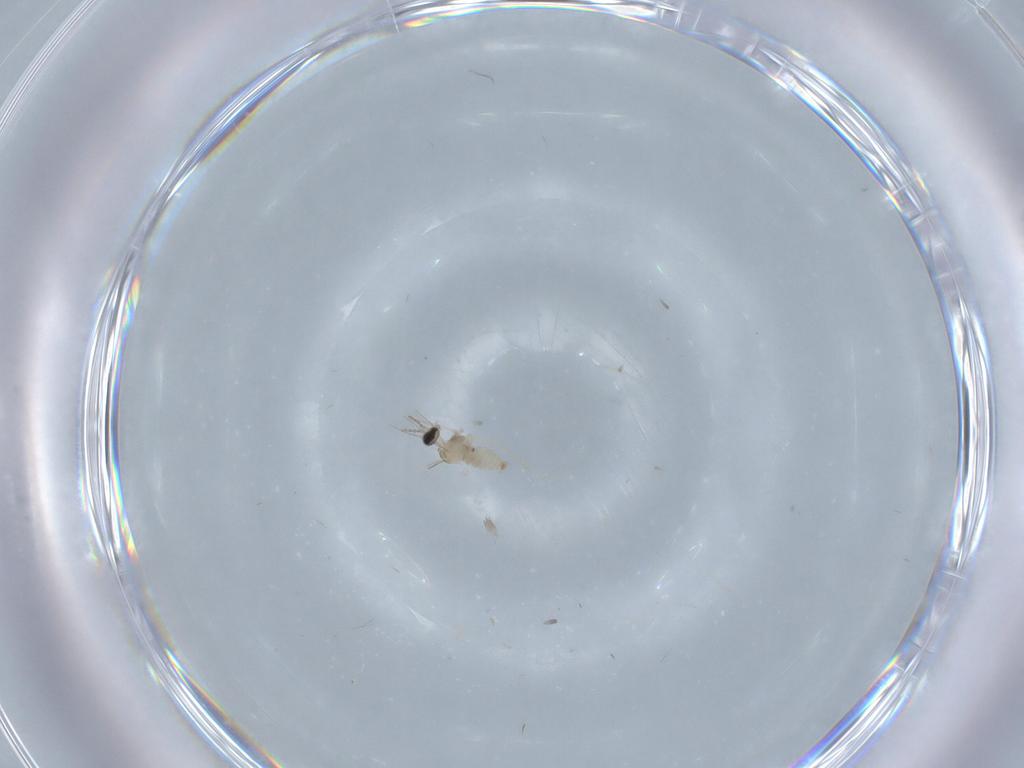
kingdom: Animalia
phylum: Arthropoda
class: Insecta
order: Diptera
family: Cecidomyiidae
